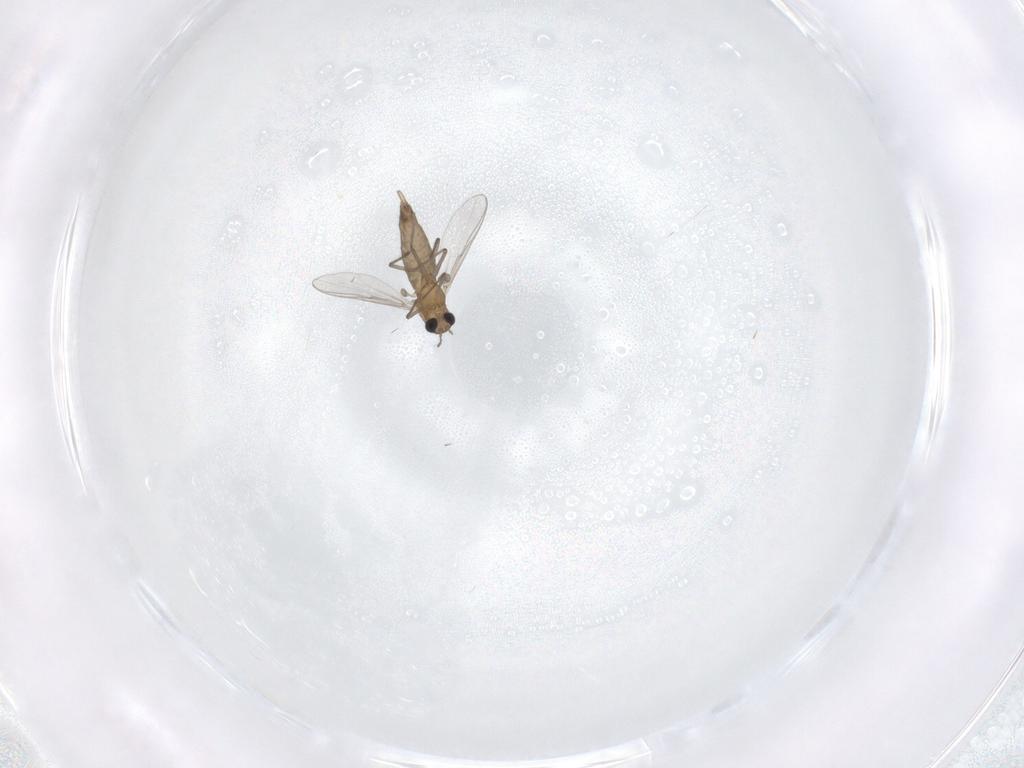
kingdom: Animalia
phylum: Arthropoda
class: Insecta
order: Diptera
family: Chironomidae
